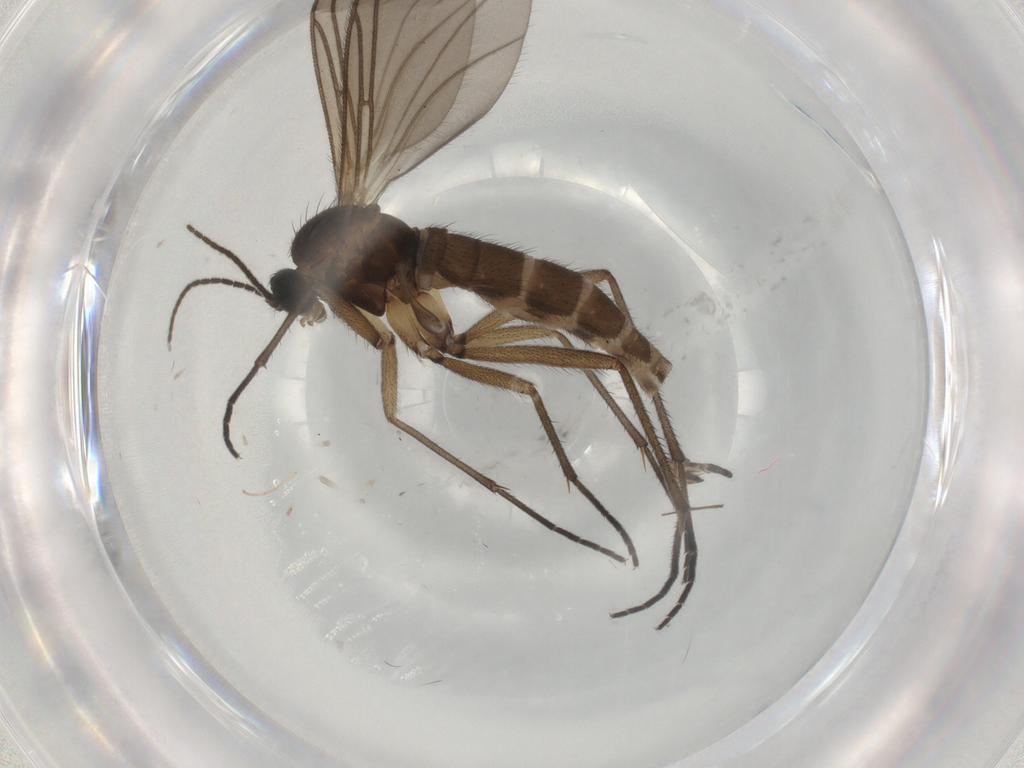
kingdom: Animalia
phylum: Arthropoda
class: Insecta
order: Diptera
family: Sciaridae
